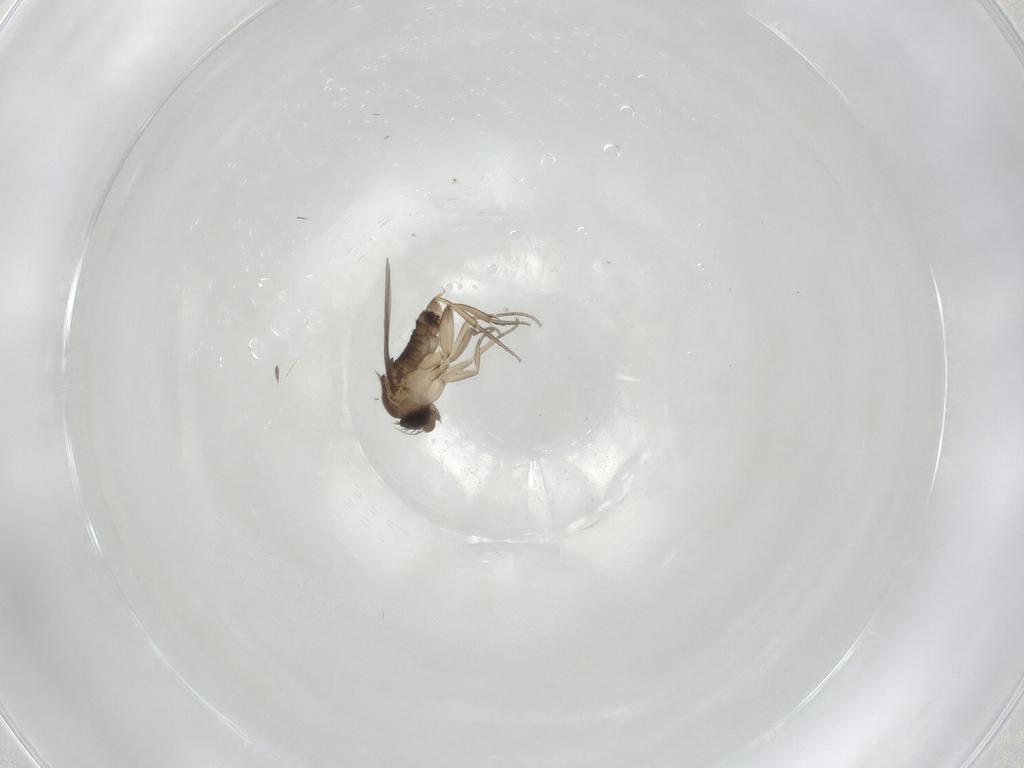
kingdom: Animalia
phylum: Arthropoda
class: Insecta
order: Diptera
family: Phoridae
